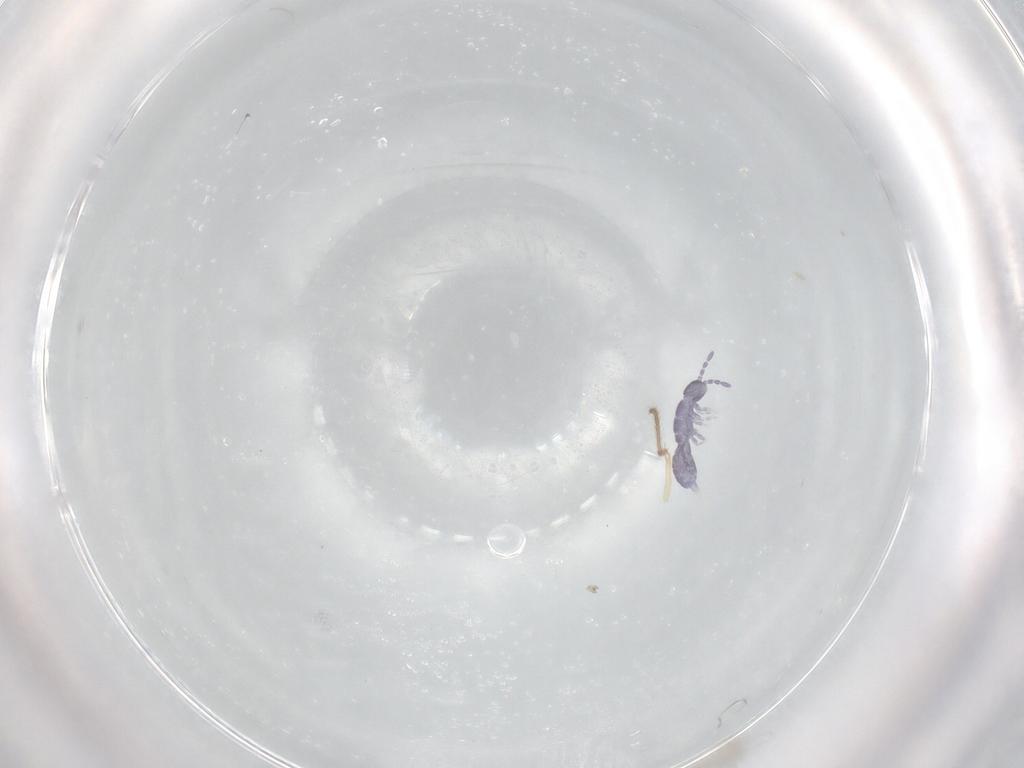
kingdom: Animalia
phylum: Arthropoda
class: Collembola
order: Entomobryomorpha
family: Isotomidae
